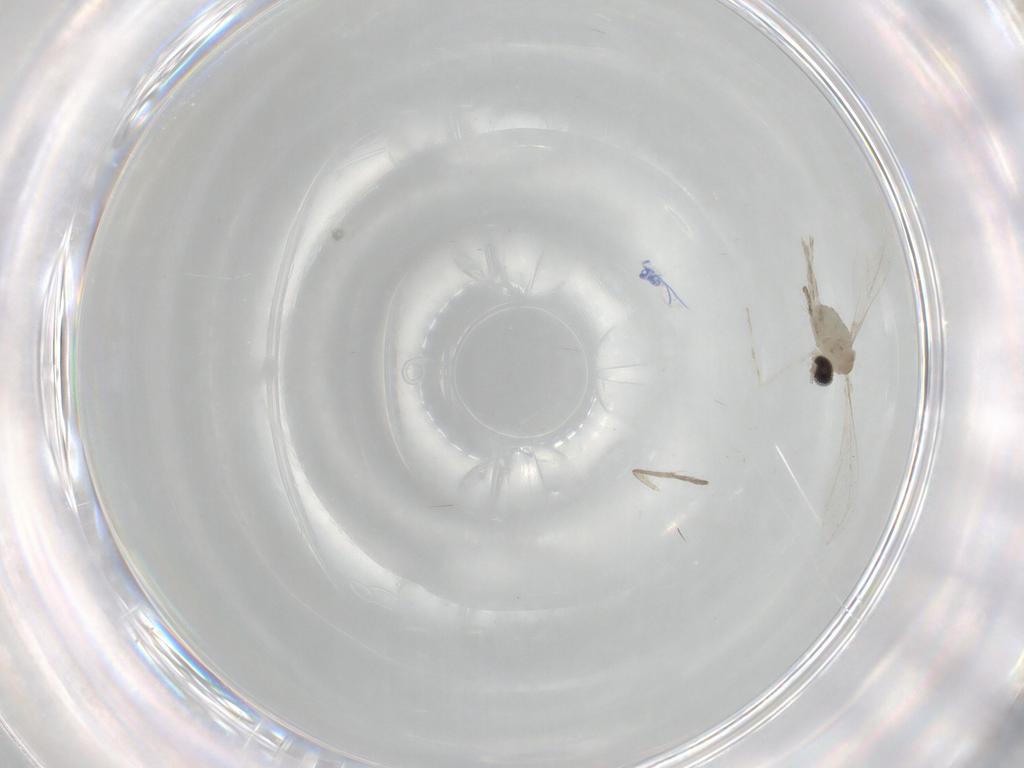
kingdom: Animalia
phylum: Arthropoda
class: Insecta
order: Diptera
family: Cecidomyiidae
